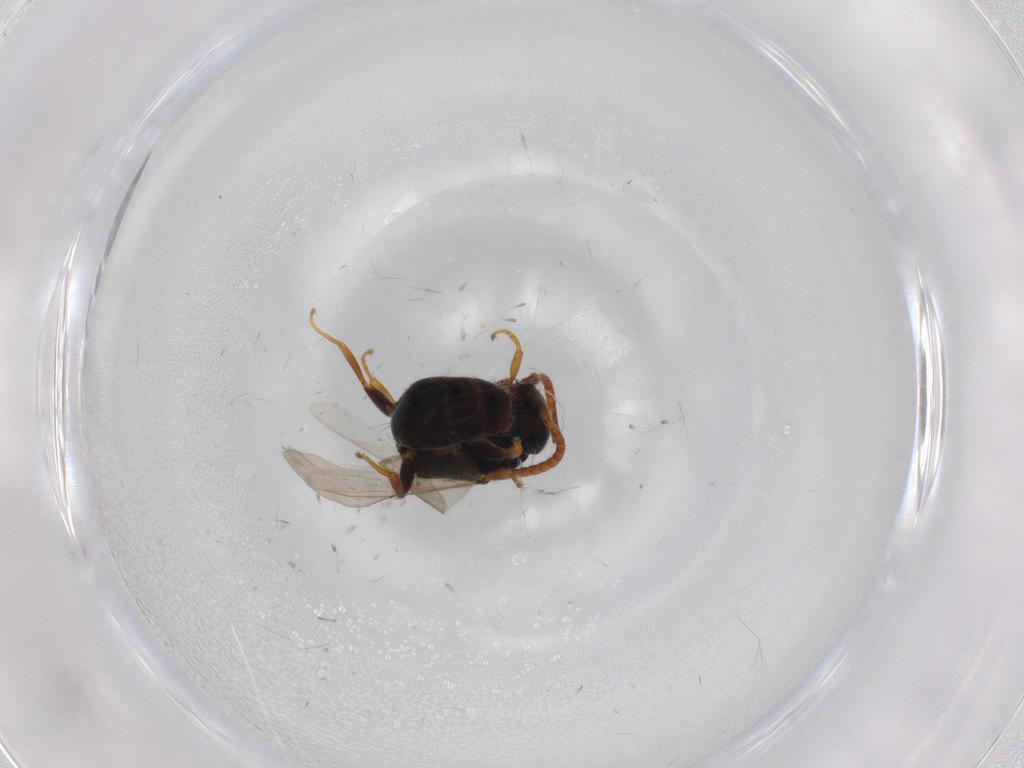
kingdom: Animalia
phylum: Arthropoda
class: Insecta
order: Hymenoptera
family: Bethylidae
